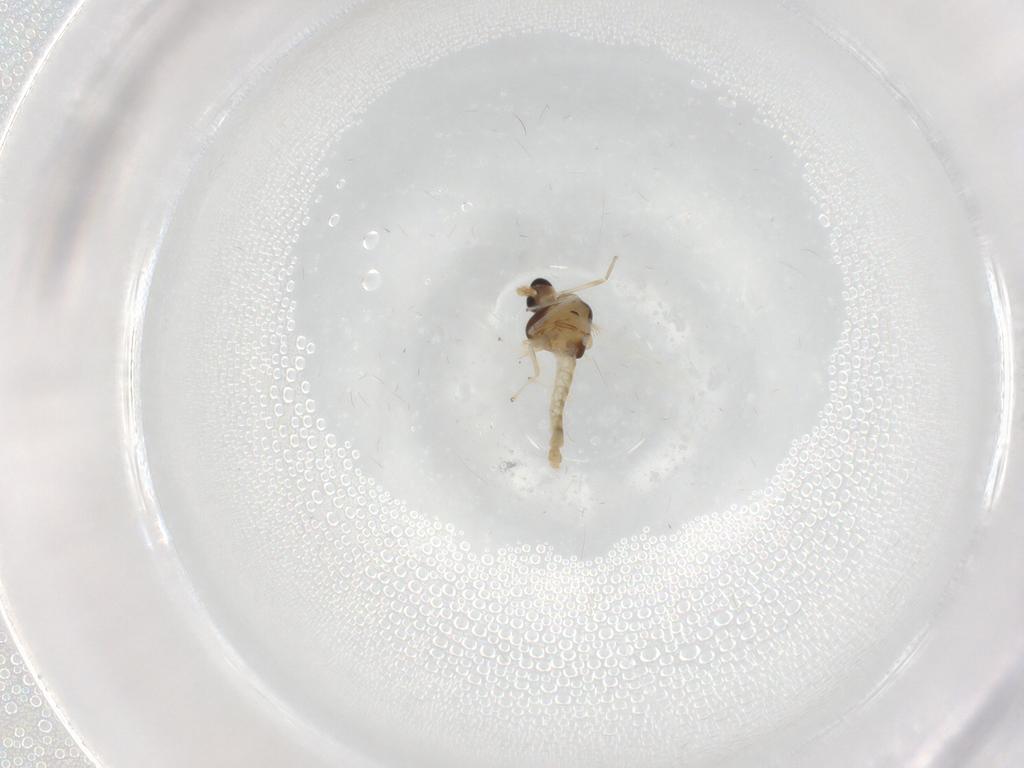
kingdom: Animalia
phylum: Arthropoda
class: Insecta
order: Diptera
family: Chironomidae
